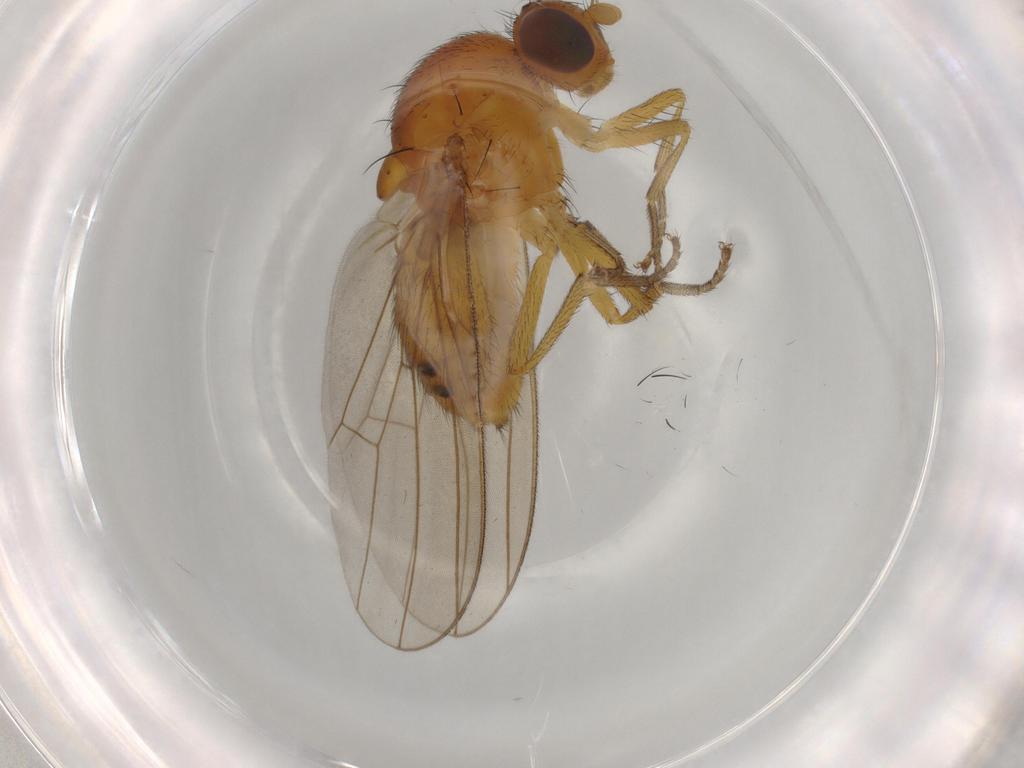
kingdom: Animalia
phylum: Arthropoda
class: Insecta
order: Diptera
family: Hybotidae
